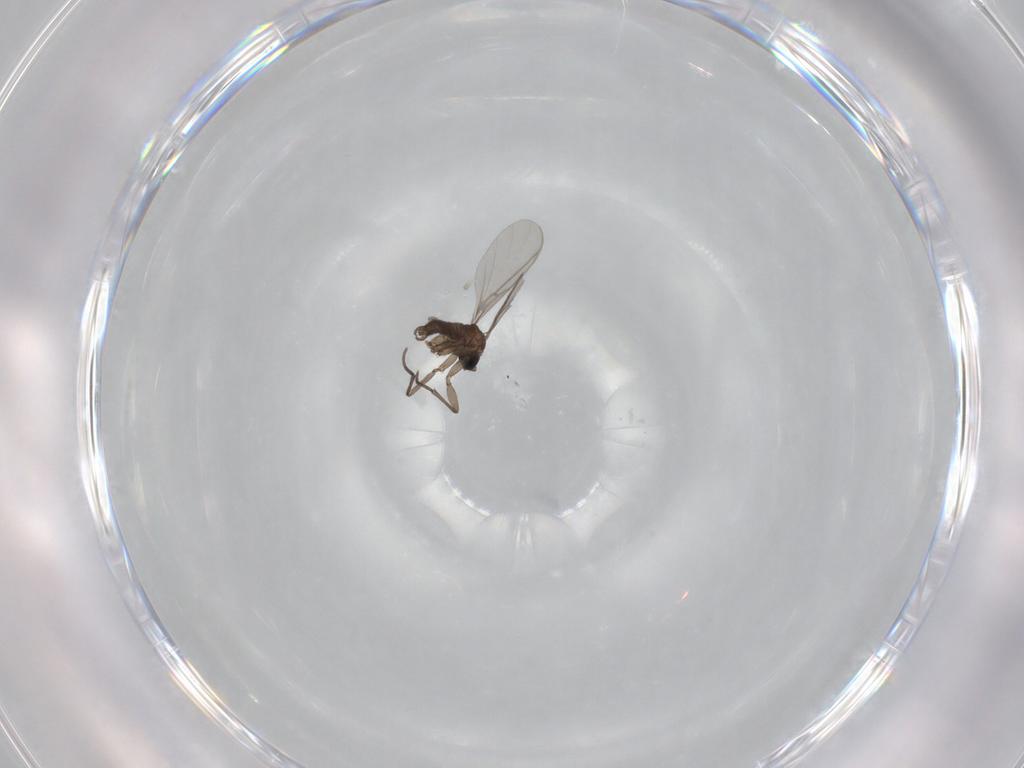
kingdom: Animalia
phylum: Arthropoda
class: Insecta
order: Diptera
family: Sciaridae
